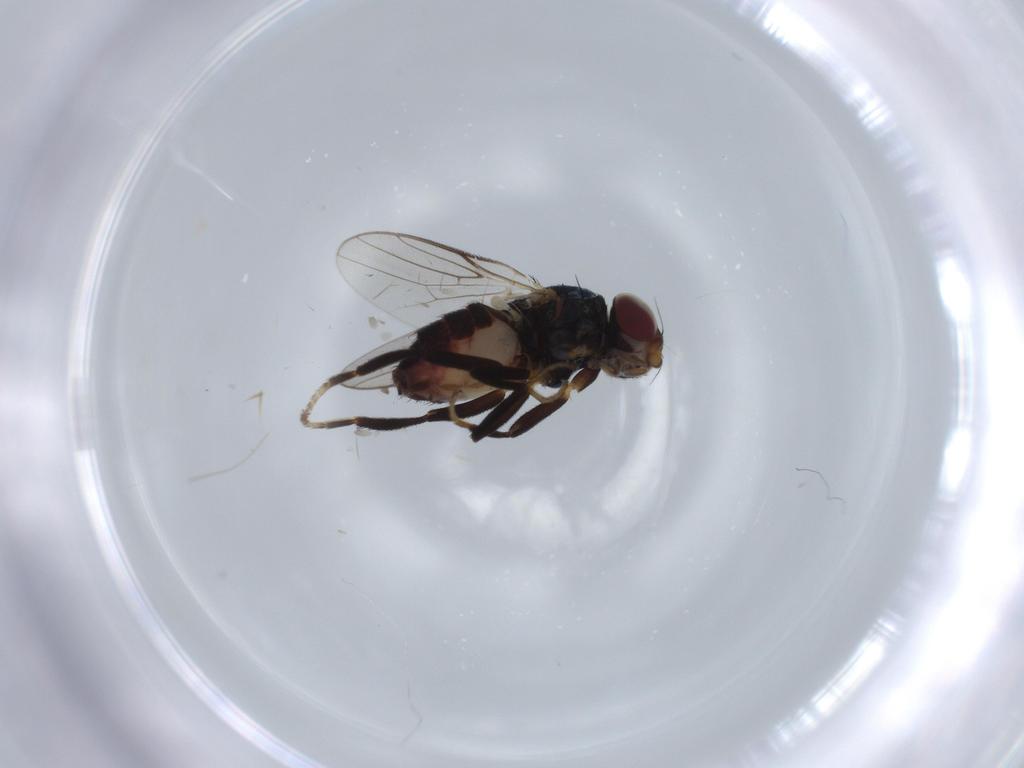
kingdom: Animalia
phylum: Arthropoda
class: Insecta
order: Diptera
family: Chloropidae
